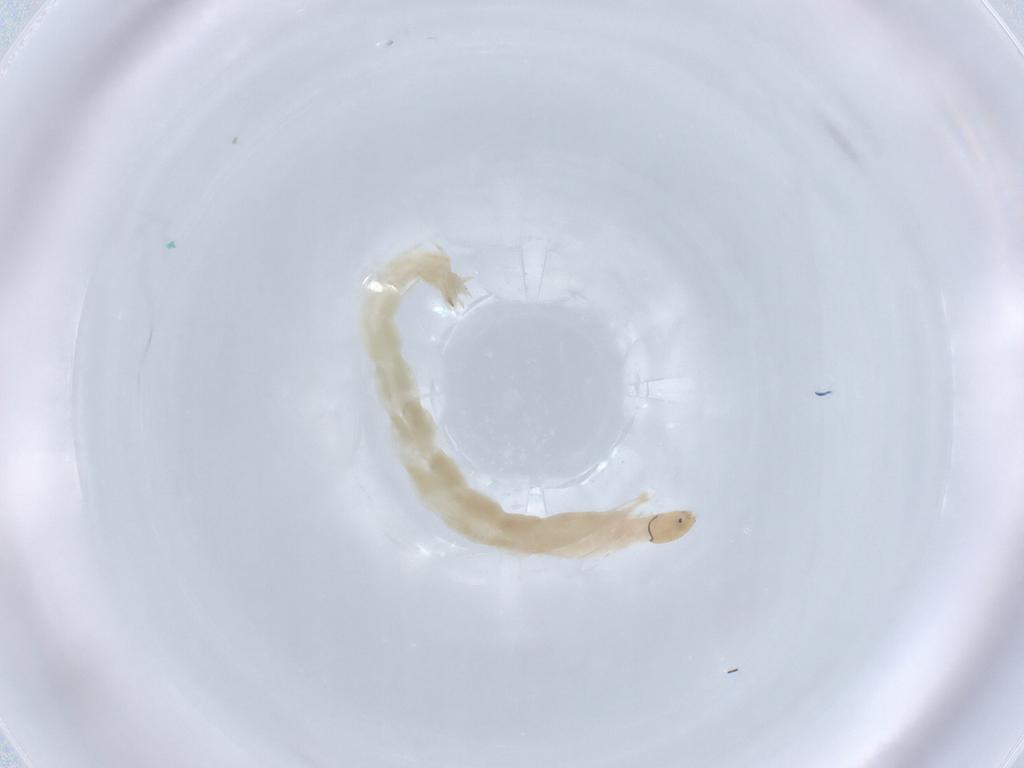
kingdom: Animalia
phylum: Arthropoda
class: Insecta
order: Diptera
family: Chironomidae
